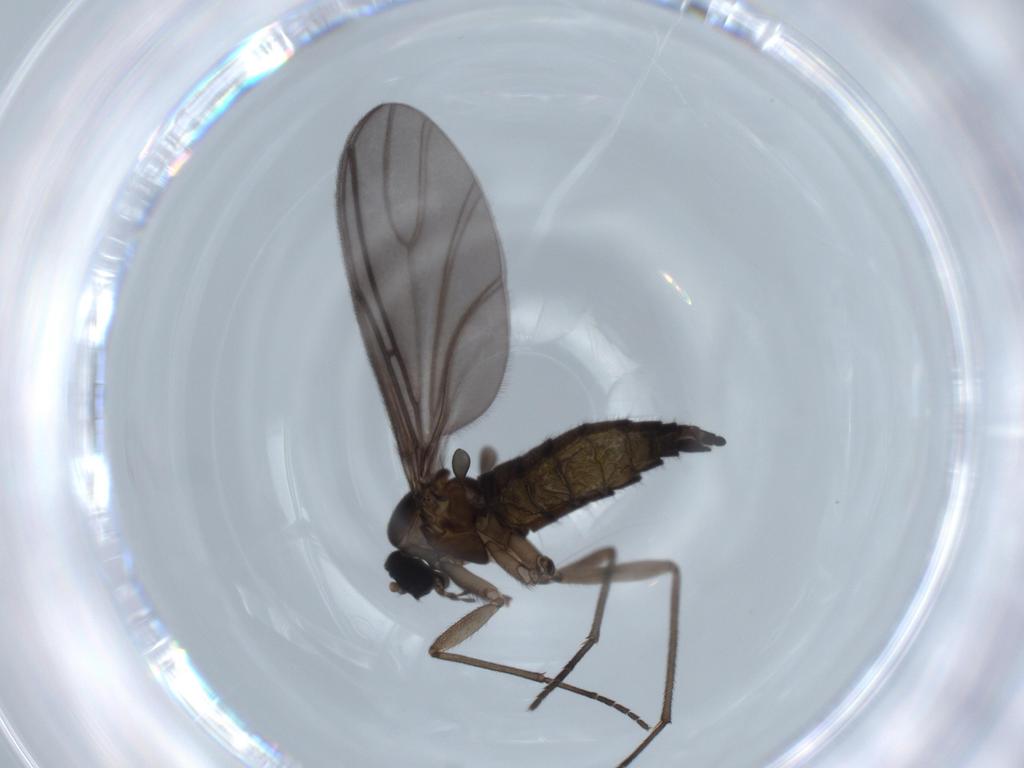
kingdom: Animalia
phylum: Arthropoda
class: Insecta
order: Diptera
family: Sciaridae
